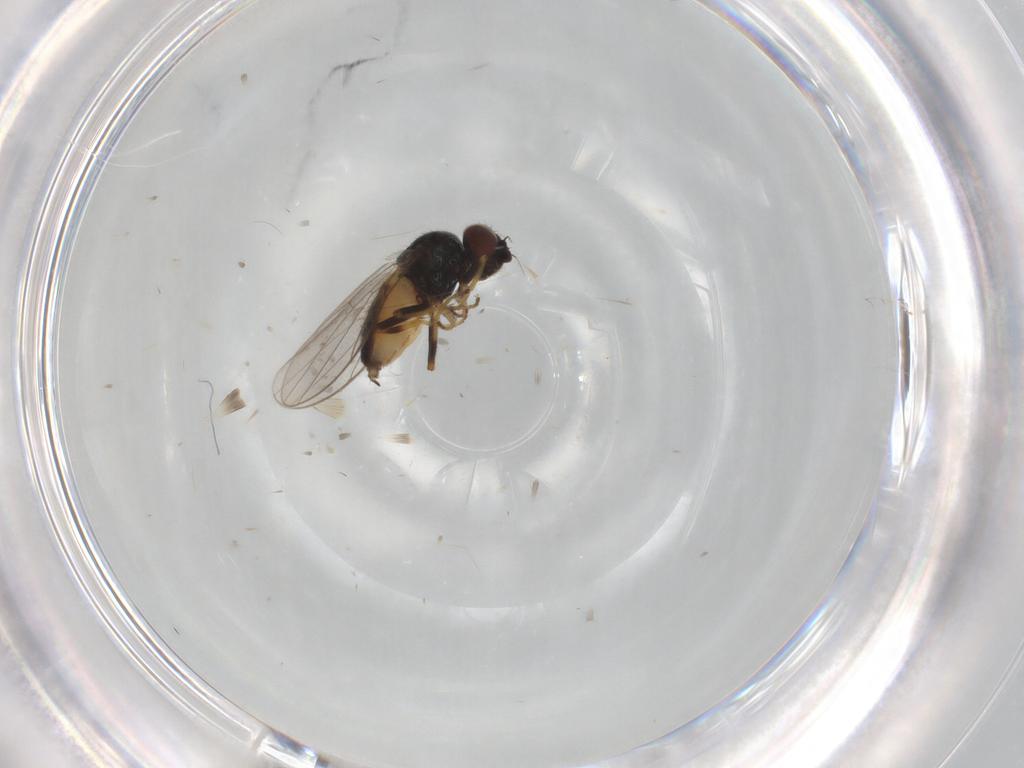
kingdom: Animalia
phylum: Arthropoda
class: Insecta
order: Diptera
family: Chloropidae
